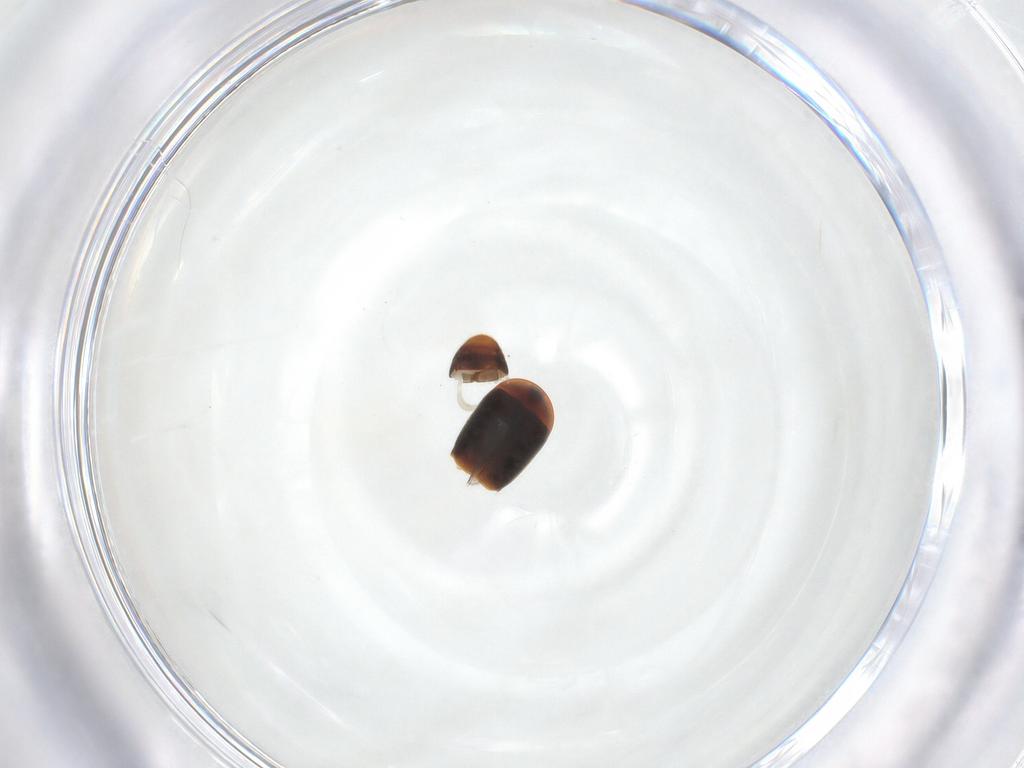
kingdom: Animalia
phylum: Arthropoda
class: Insecta
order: Coleoptera
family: Corylophidae
